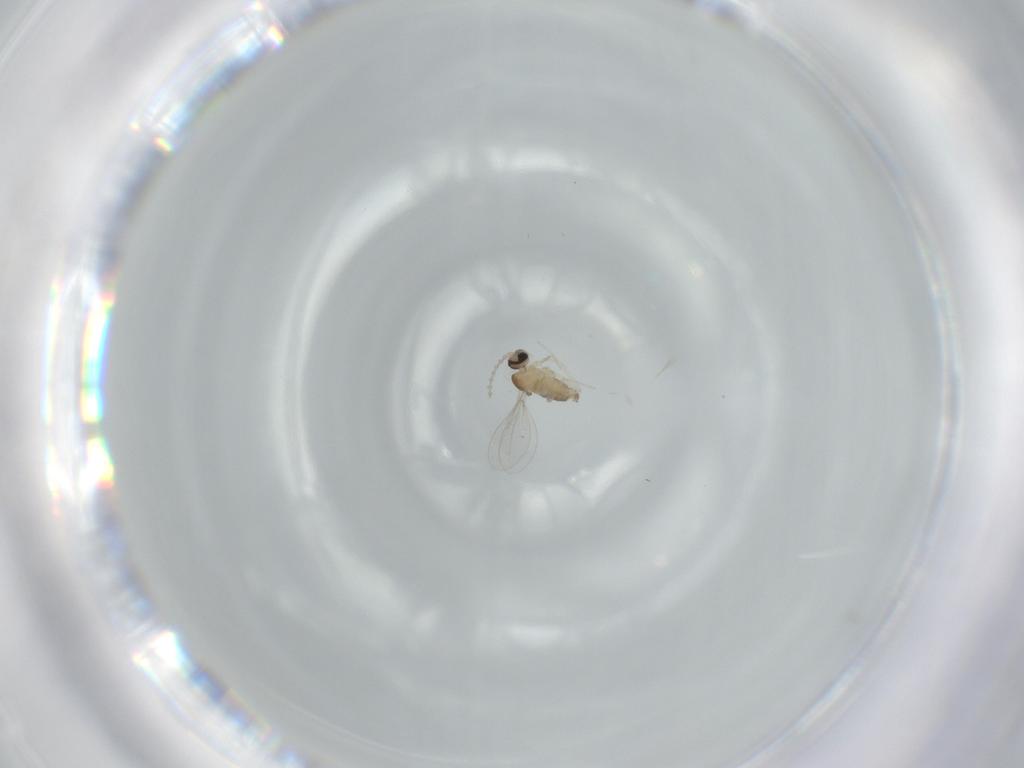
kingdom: Animalia
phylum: Arthropoda
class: Insecta
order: Diptera
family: Cecidomyiidae
